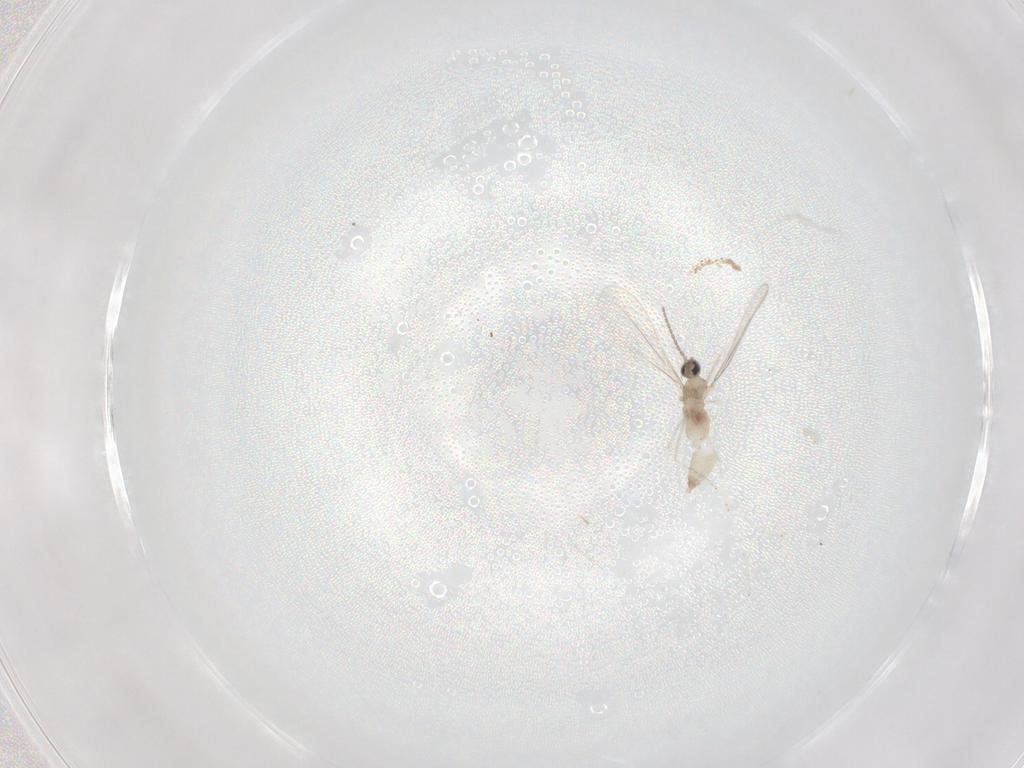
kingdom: Animalia
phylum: Arthropoda
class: Insecta
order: Diptera
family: Cecidomyiidae
